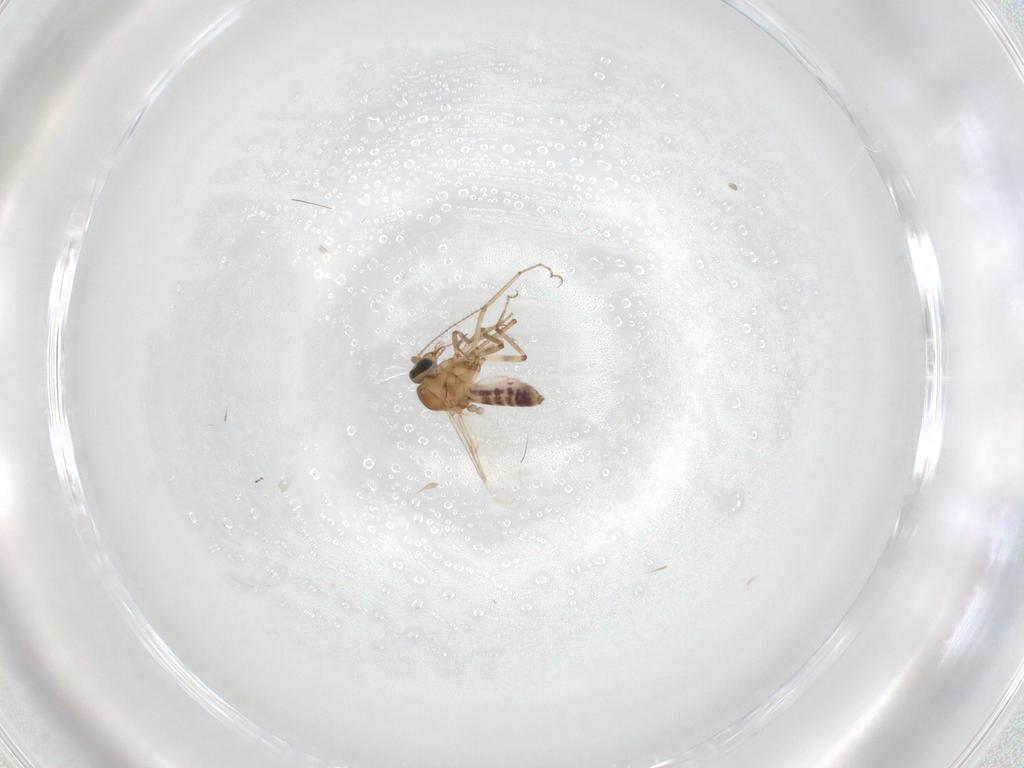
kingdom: Animalia
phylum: Arthropoda
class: Insecta
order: Diptera
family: Ceratopogonidae
